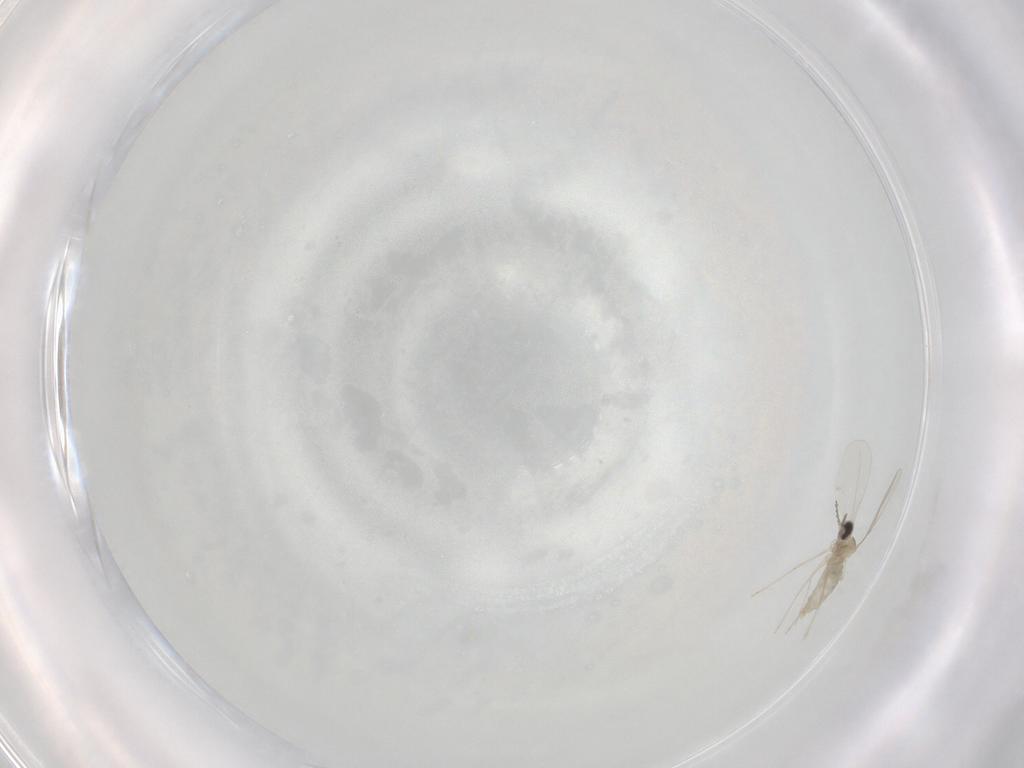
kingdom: Animalia
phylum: Arthropoda
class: Insecta
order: Diptera
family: Cecidomyiidae
